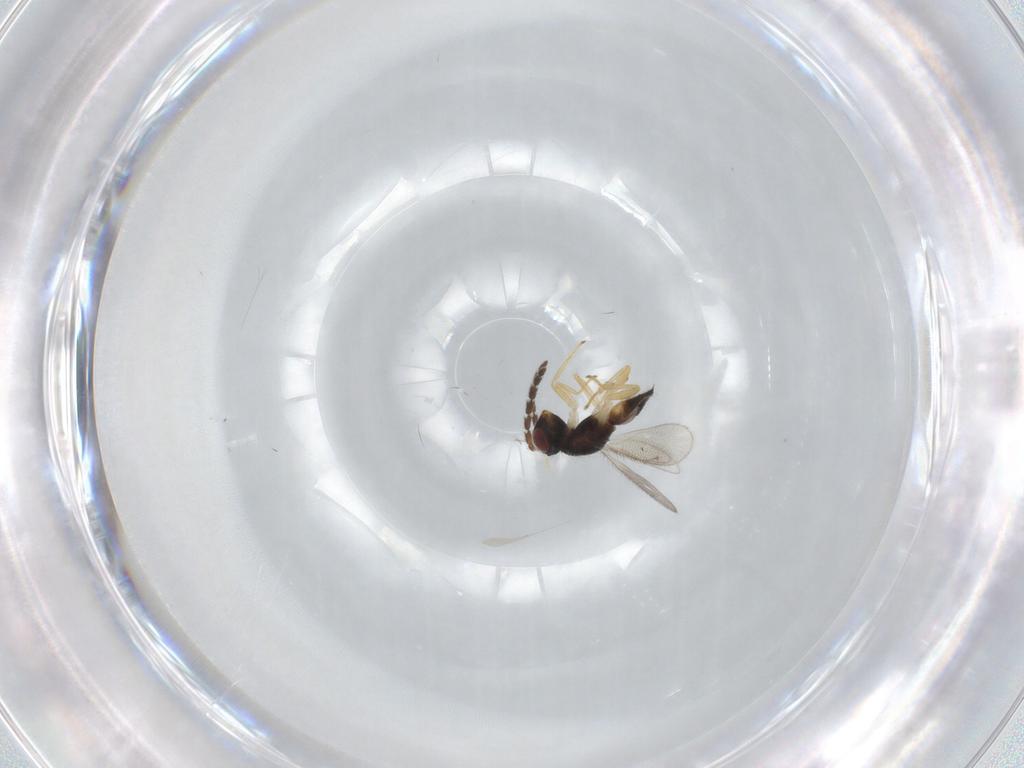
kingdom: Animalia
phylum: Arthropoda
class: Insecta
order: Hymenoptera
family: Eulophidae
